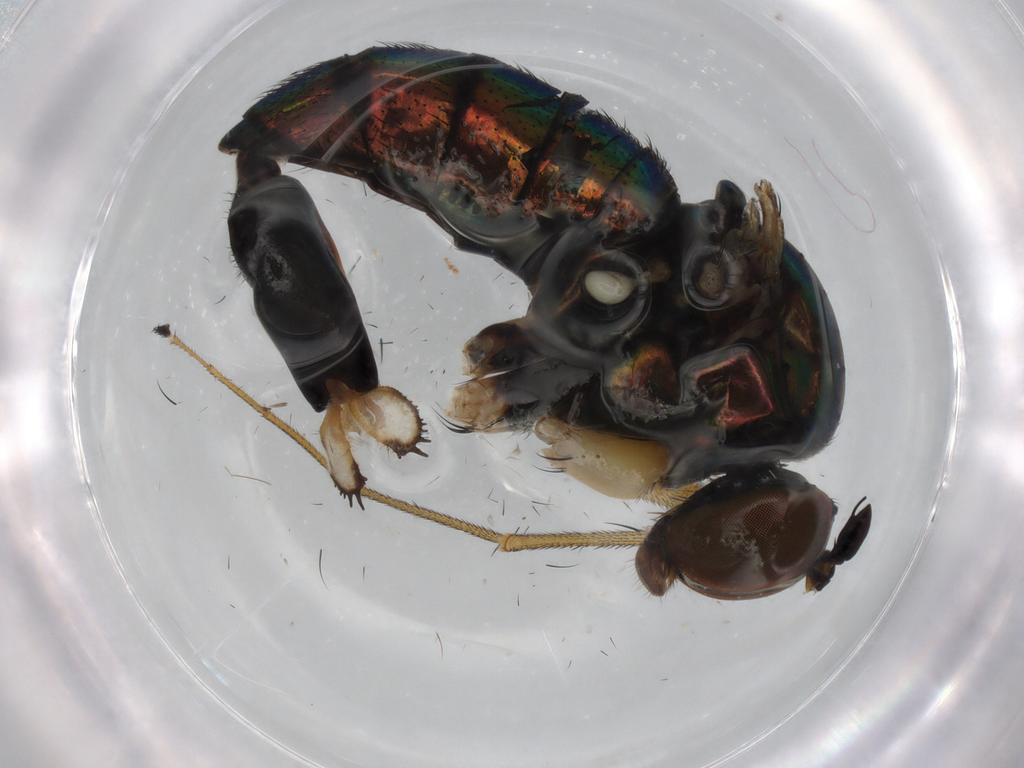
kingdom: Animalia
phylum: Arthropoda
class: Insecta
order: Diptera
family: Dolichopodidae
